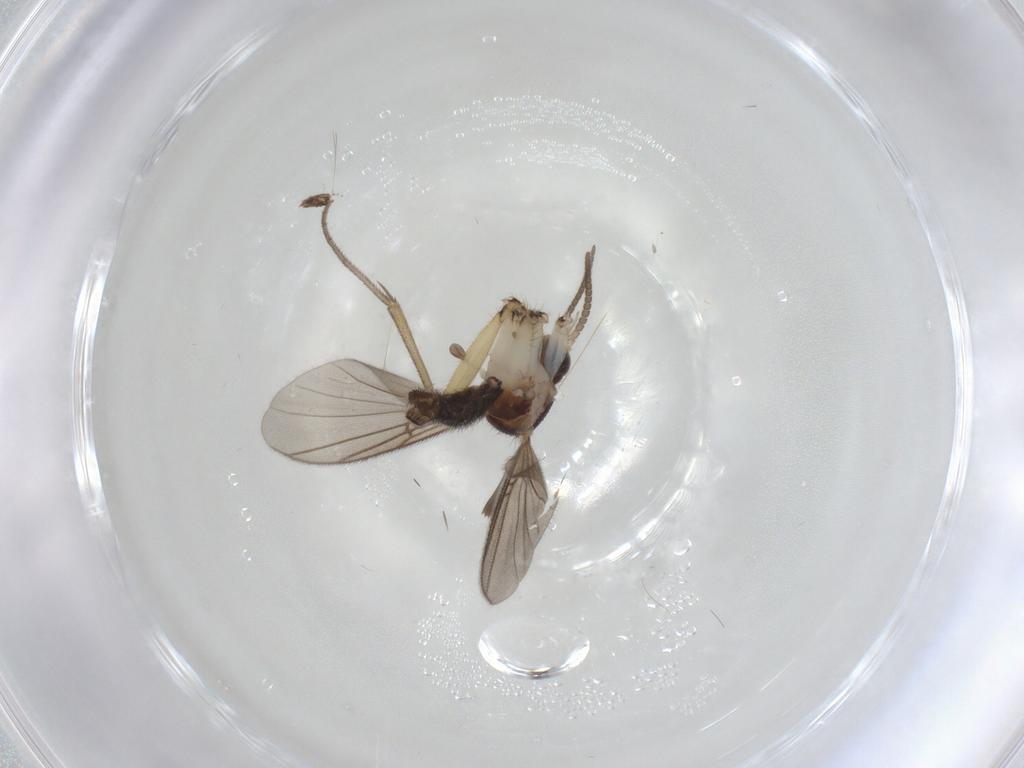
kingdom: Animalia
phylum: Arthropoda
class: Insecta
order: Diptera
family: Sciaridae
